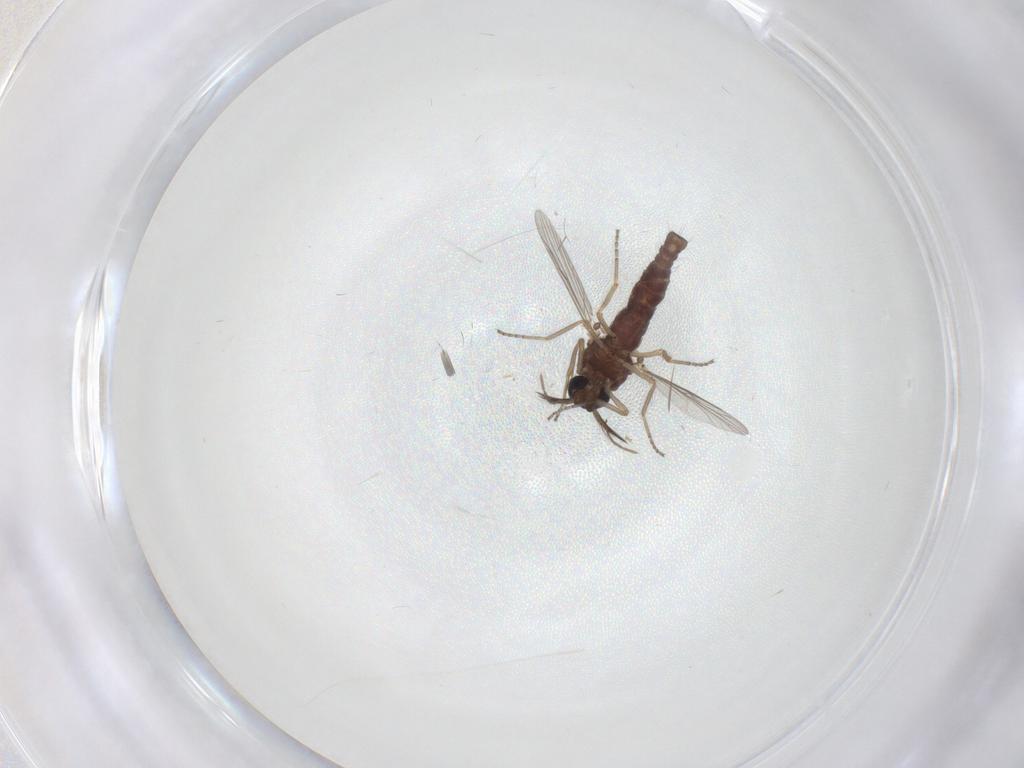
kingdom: Animalia
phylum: Arthropoda
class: Insecta
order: Diptera
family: Ceratopogonidae
